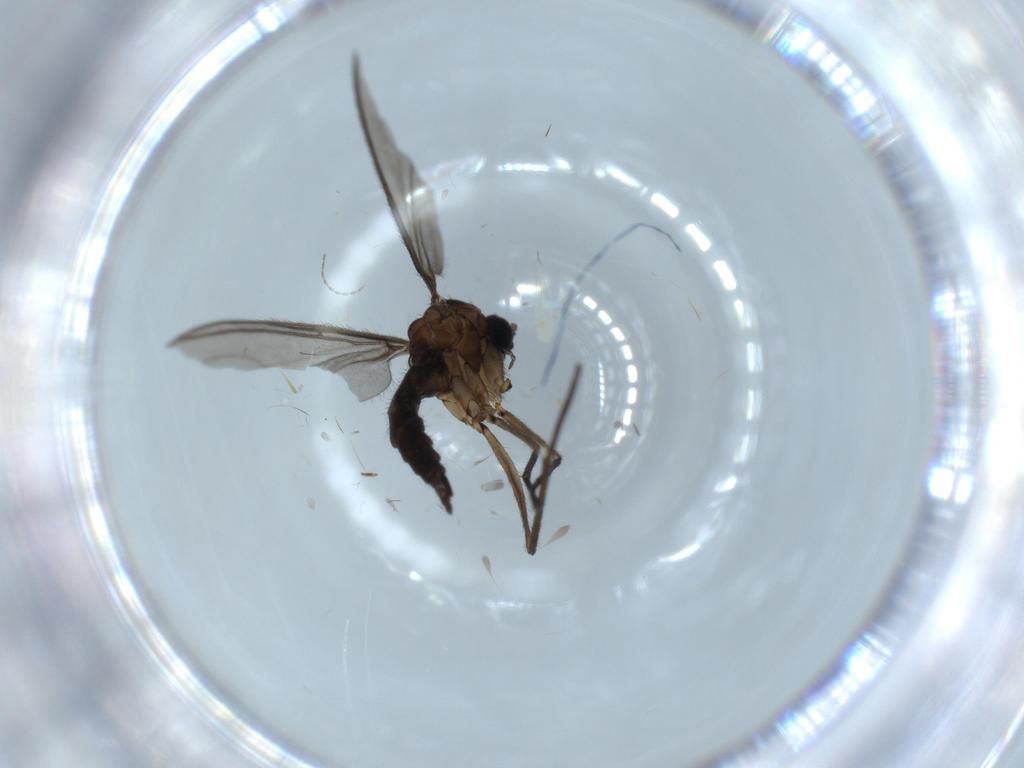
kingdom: Animalia
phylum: Arthropoda
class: Insecta
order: Diptera
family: Sciaridae
